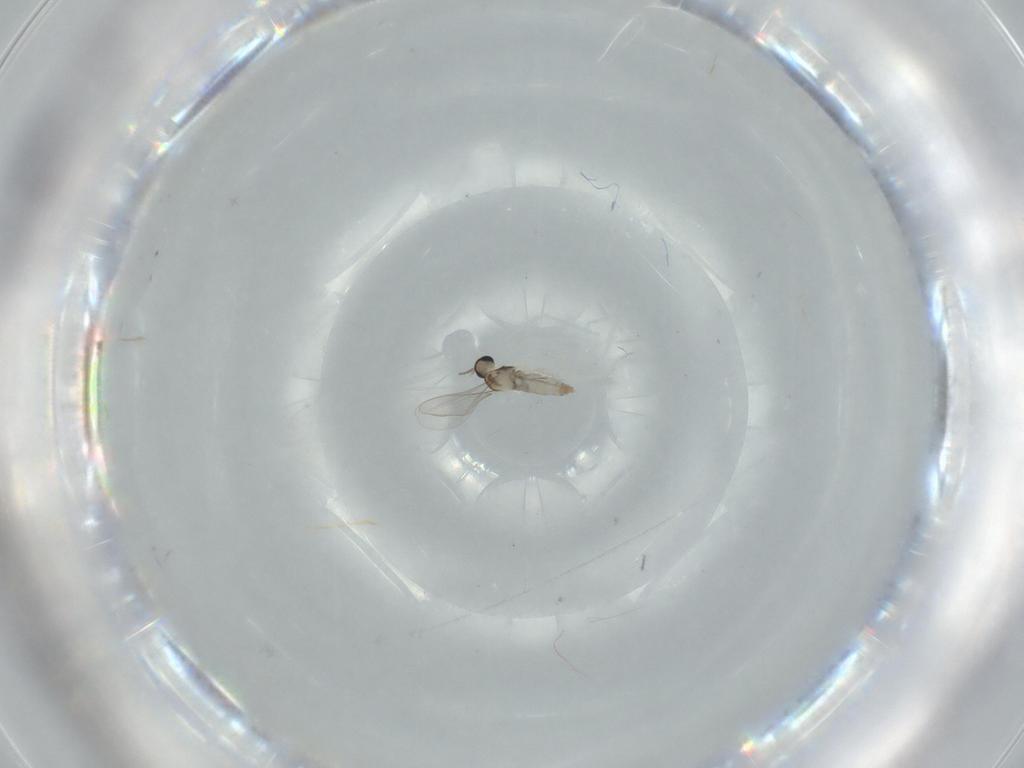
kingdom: Animalia
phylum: Arthropoda
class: Insecta
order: Diptera
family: Cecidomyiidae
